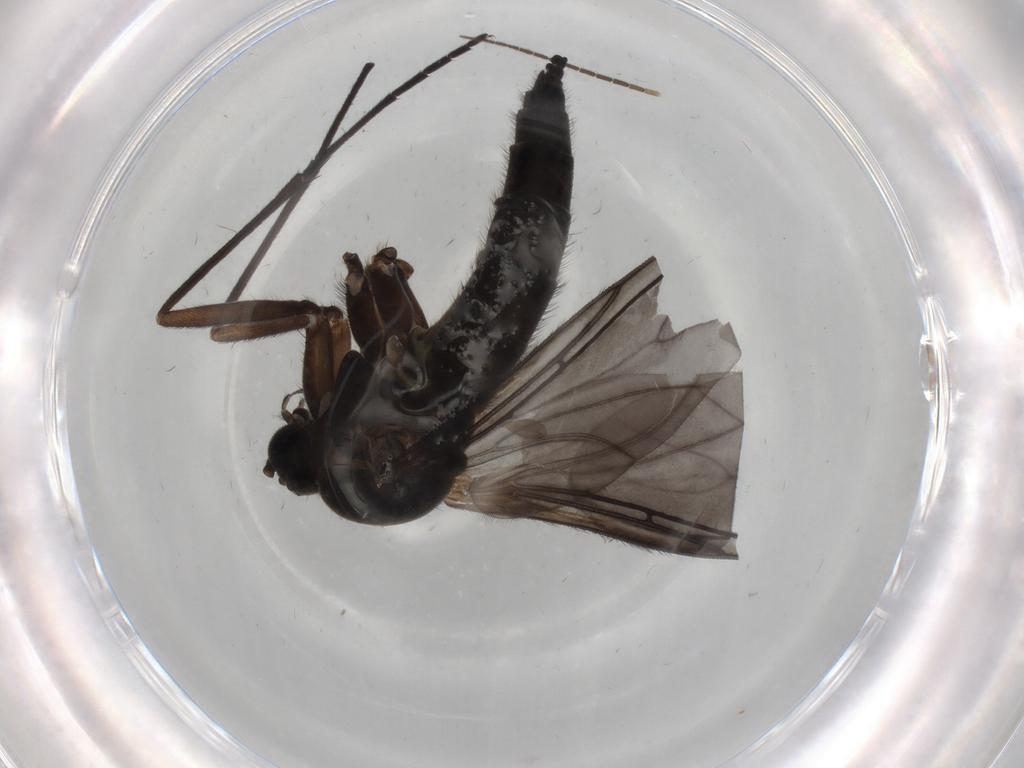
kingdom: Animalia
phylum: Arthropoda
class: Insecta
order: Diptera
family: Sciaridae
